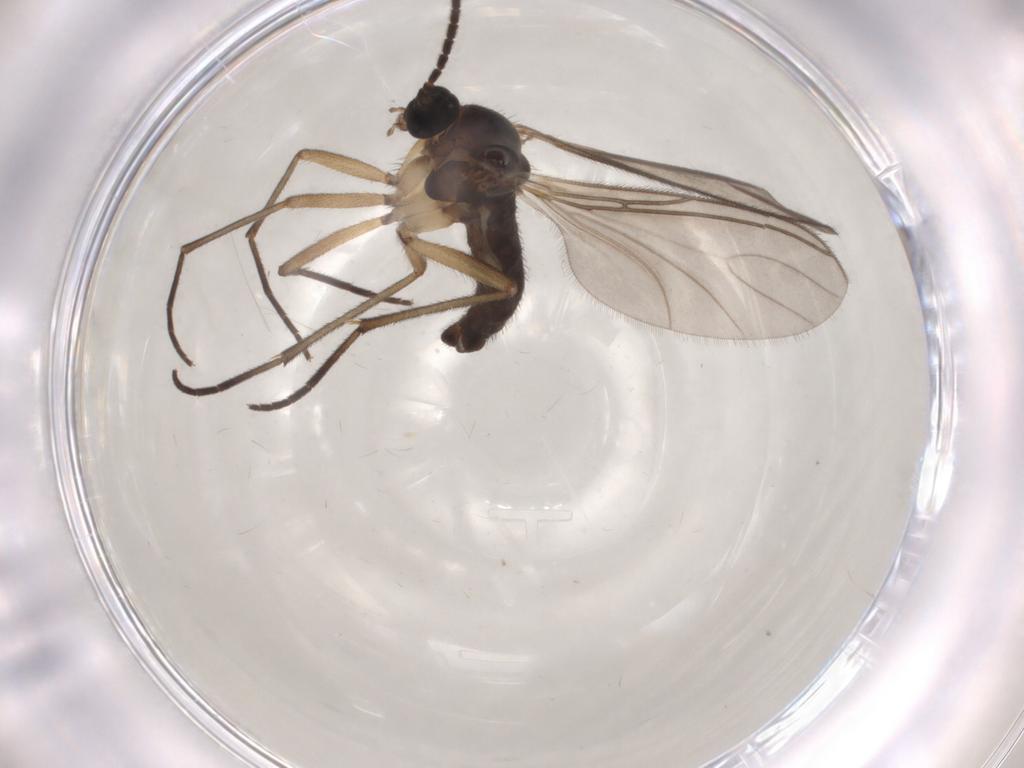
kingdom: Animalia
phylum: Arthropoda
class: Insecta
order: Diptera
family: Sciaridae
